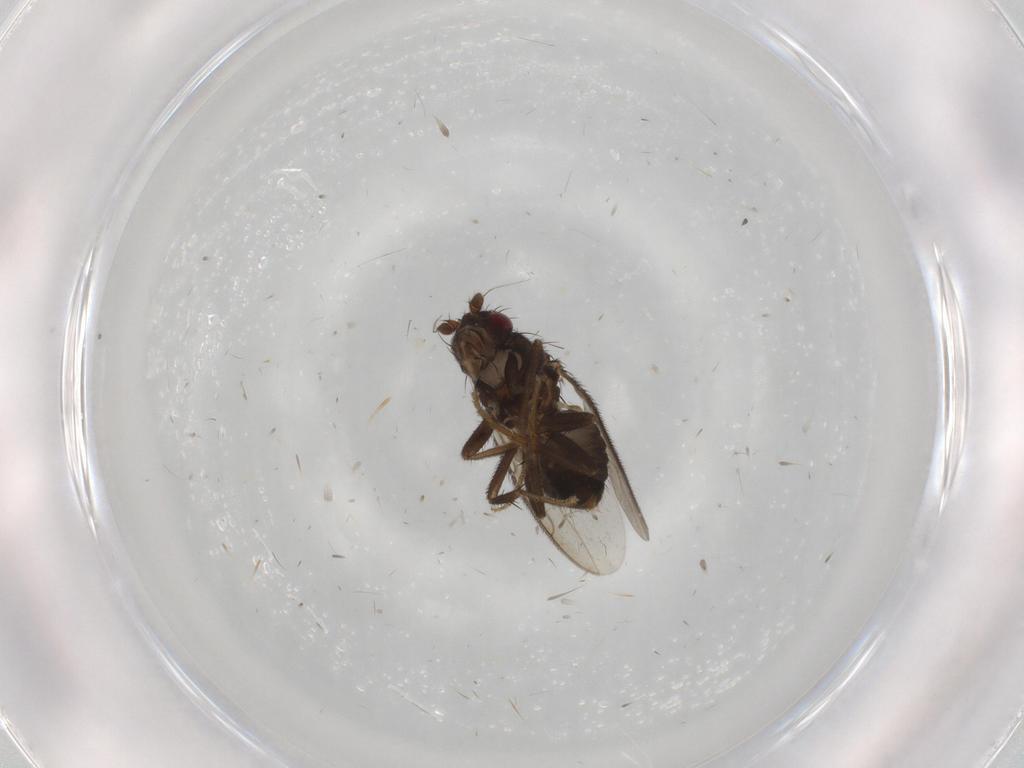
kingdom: Animalia
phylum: Arthropoda
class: Insecta
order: Diptera
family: Sphaeroceridae
